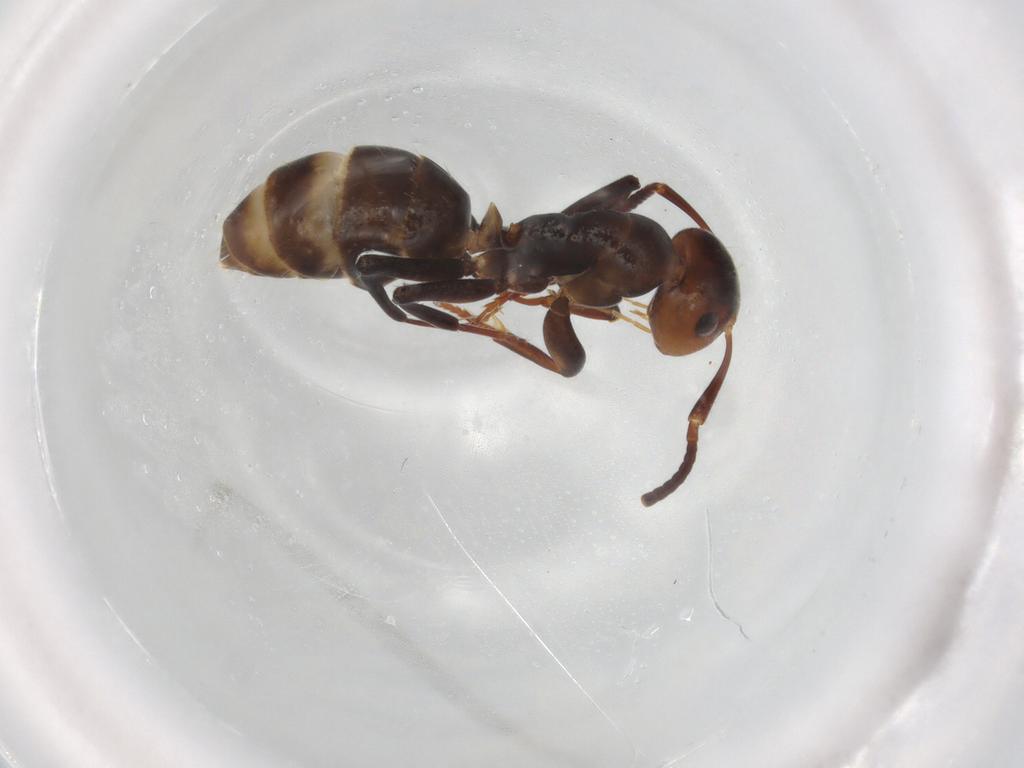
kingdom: Animalia
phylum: Arthropoda
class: Insecta
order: Hymenoptera
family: Formicidae
